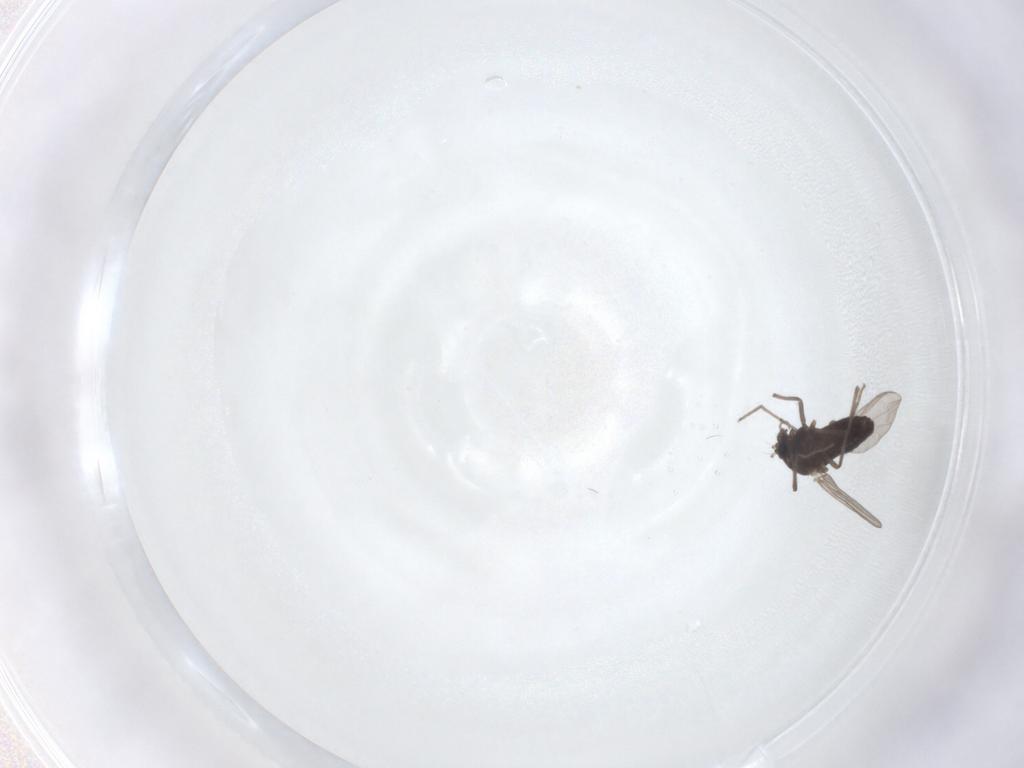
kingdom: Animalia
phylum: Arthropoda
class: Insecta
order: Diptera
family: Chironomidae
